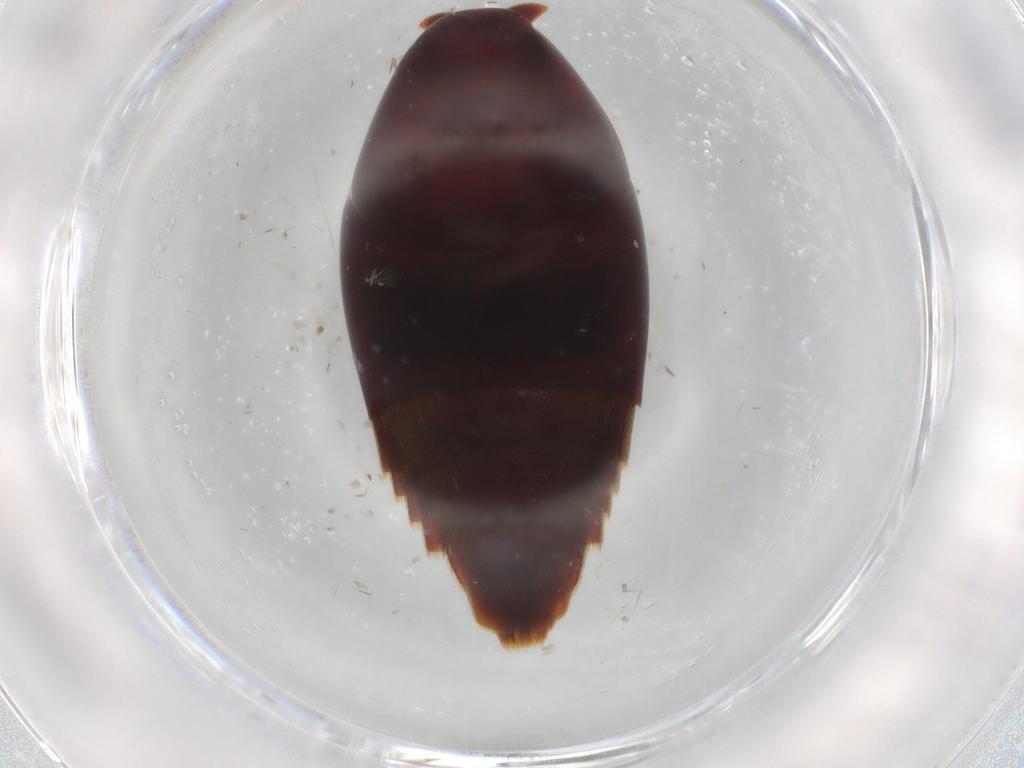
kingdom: Animalia
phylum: Arthropoda
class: Insecta
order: Coleoptera
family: Staphylinidae
